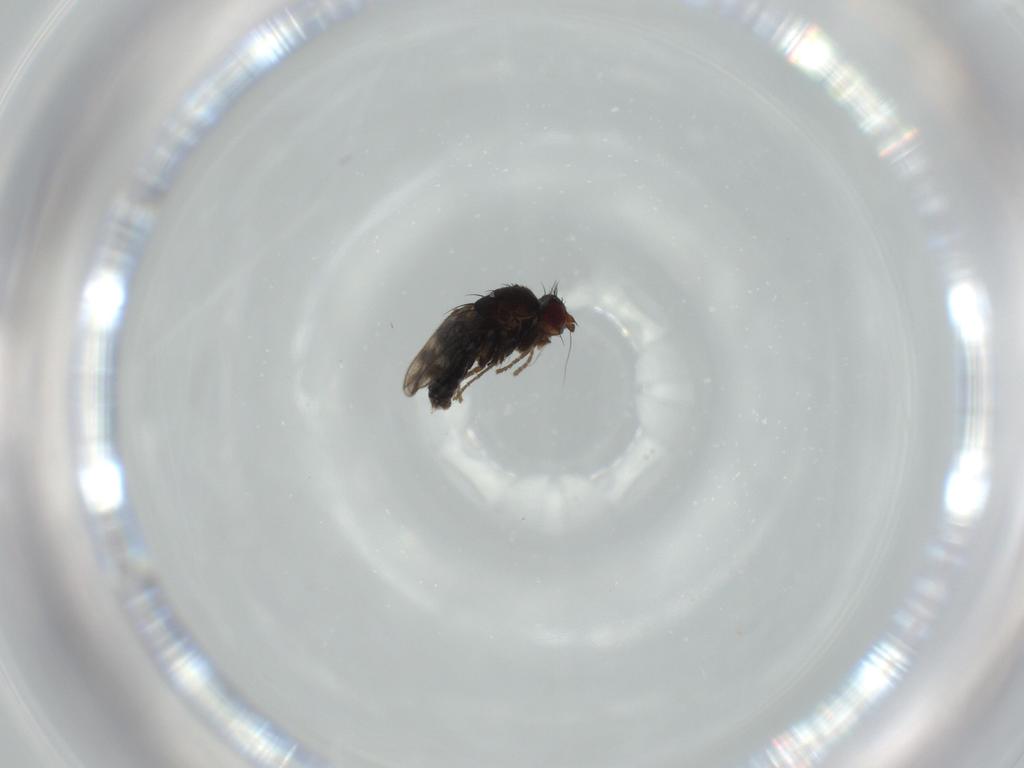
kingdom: Animalia
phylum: Arthropoda
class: Insecta
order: Diptera
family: Sphaeroceridae
